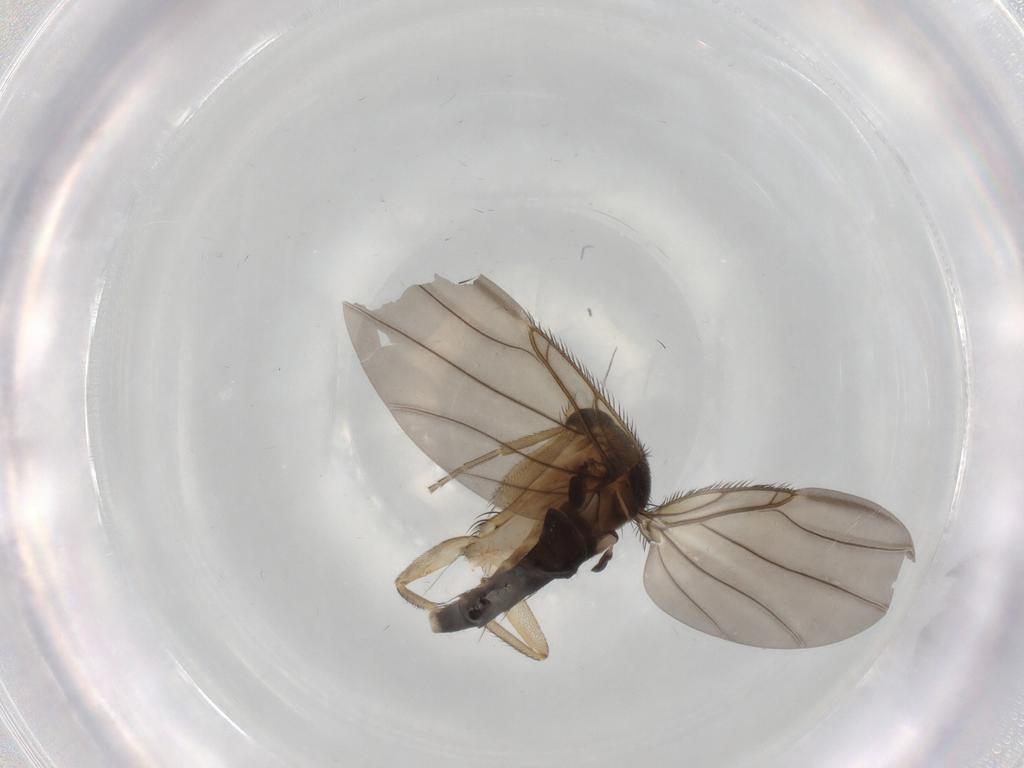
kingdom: Animalia
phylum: Arthropoda
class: Insecta
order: Diptera
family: Phoridae
